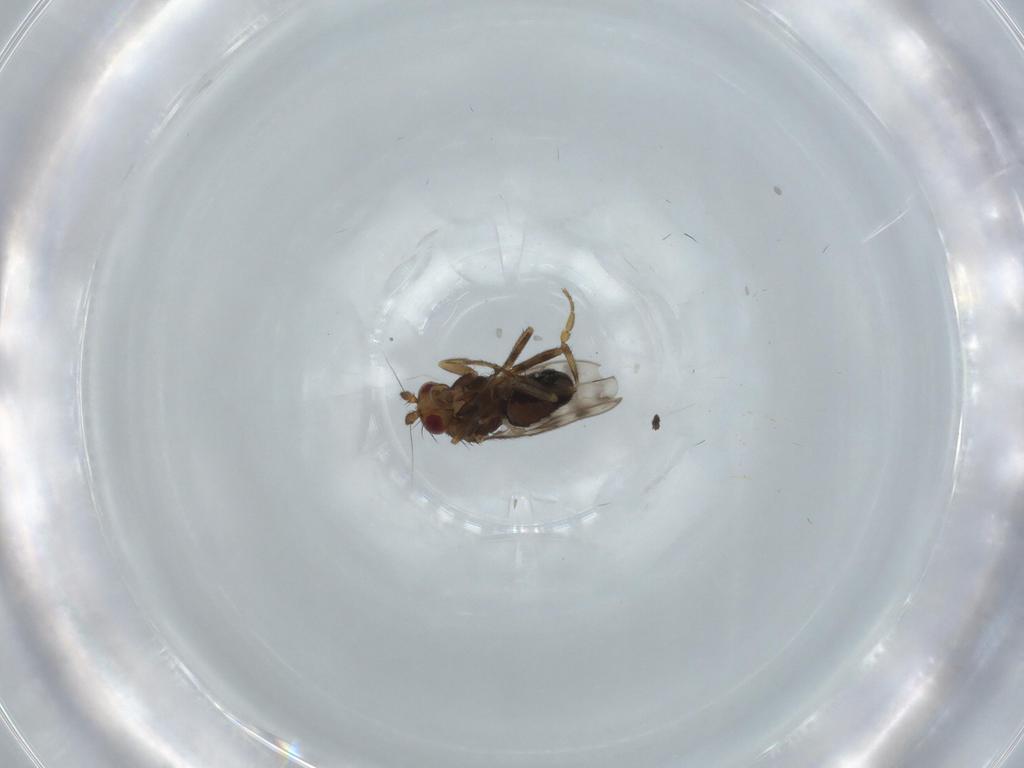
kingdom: Animalia
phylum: Arthropoda
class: Insecta
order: Diptera
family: Sphaeroceridae
